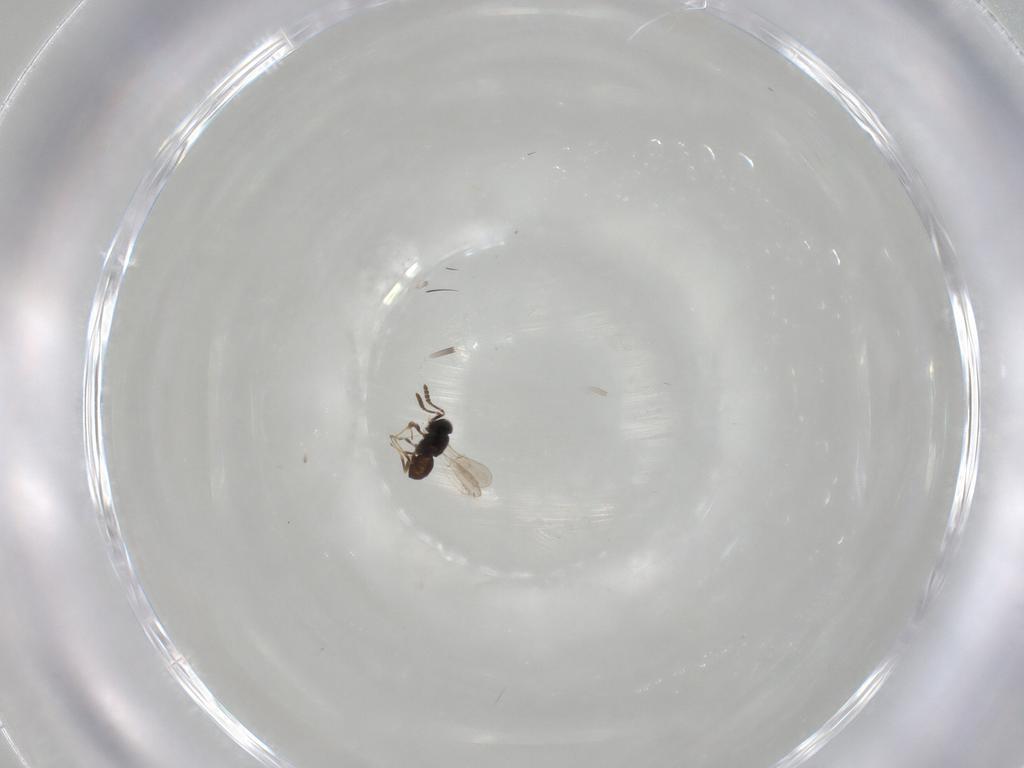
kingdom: Animalia
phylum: Arthropoda
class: Insecta
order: Hymenoptera
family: Scelionidae
